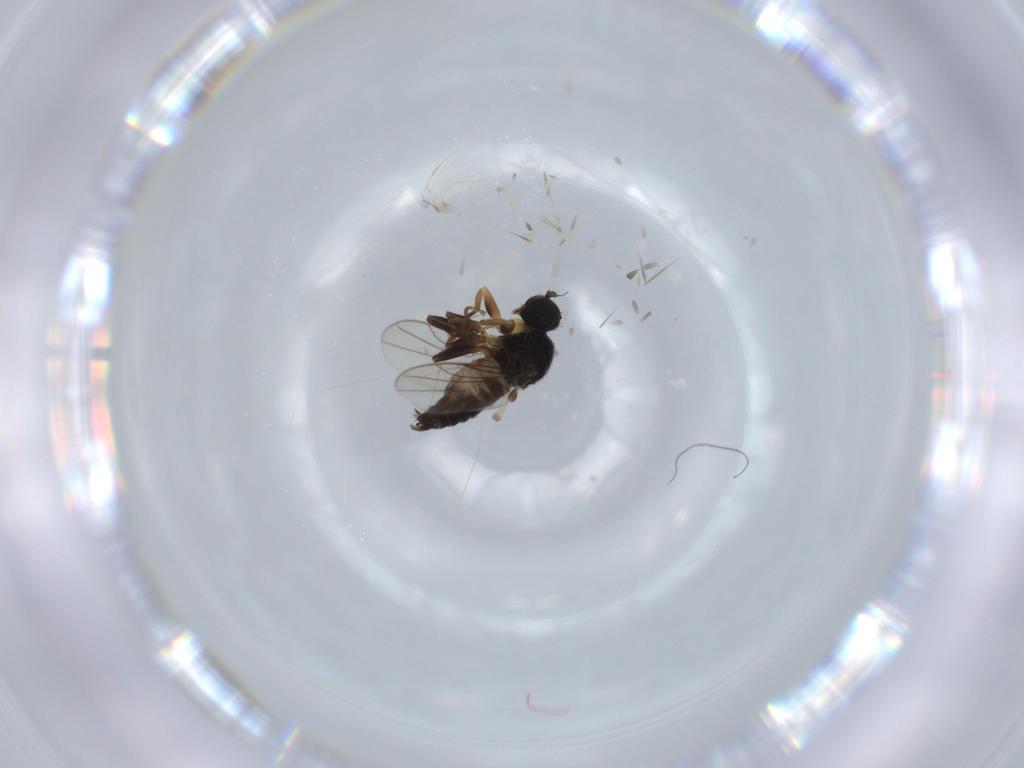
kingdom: Animalia
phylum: Arthropoda
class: Insecta
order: Diptera
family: Hybotidae
